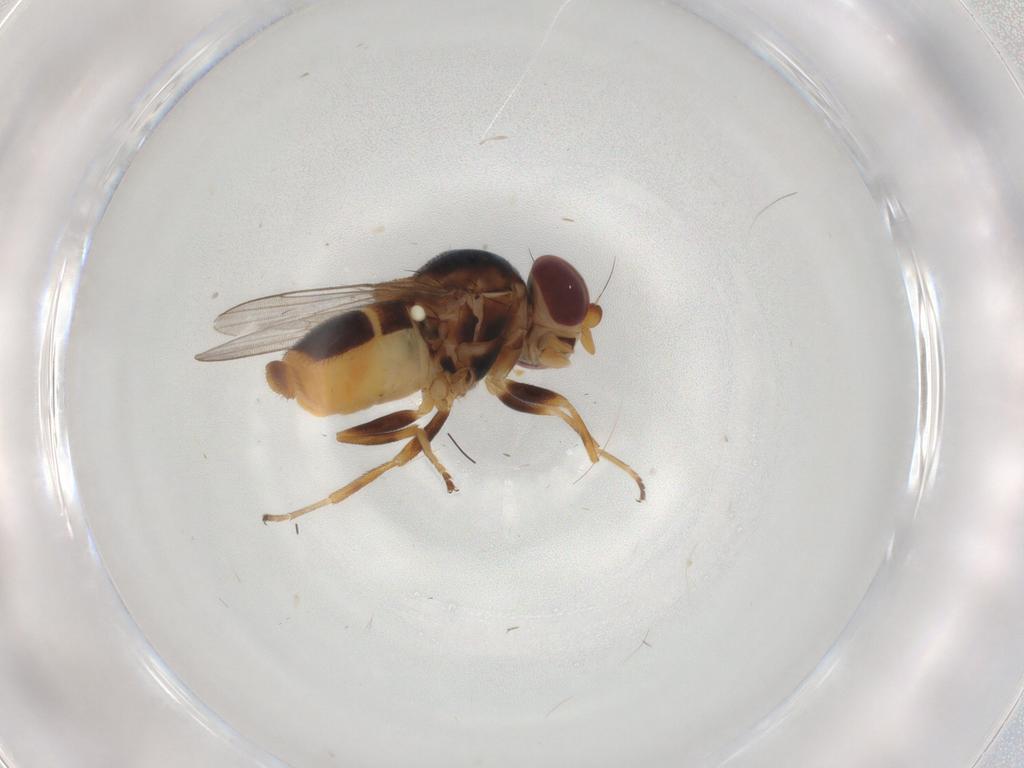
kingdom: Animalia
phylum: Arthropoda
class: Insecta
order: Diptera
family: Chloropidae
